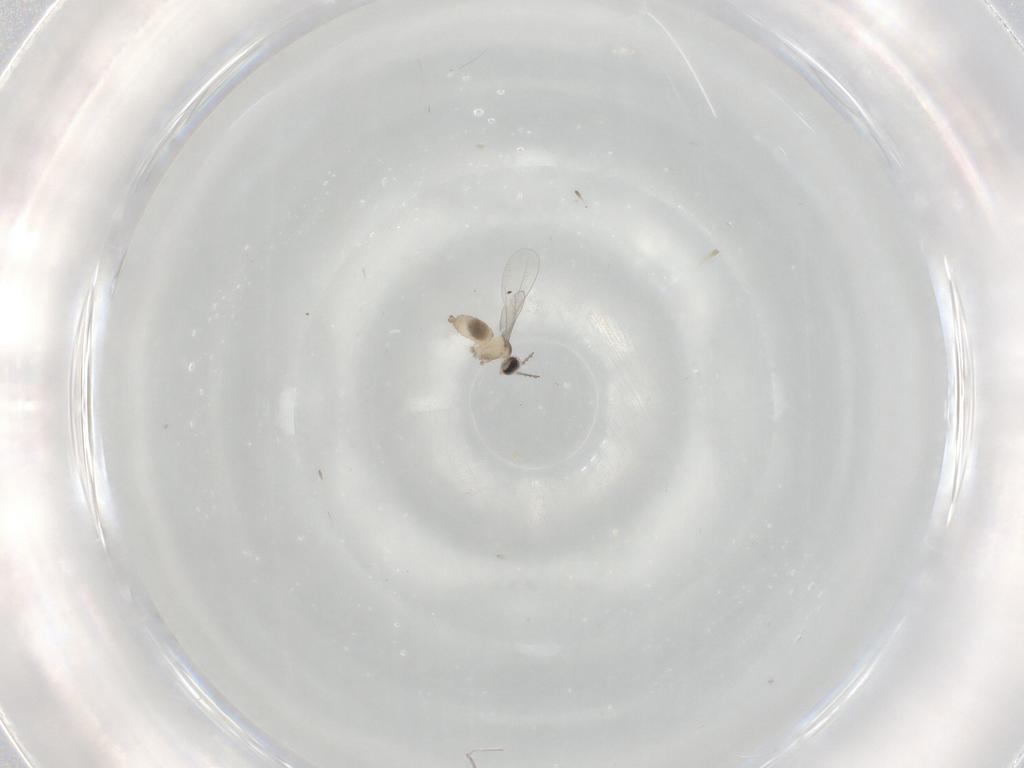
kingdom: Animalia
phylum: Arthropoda
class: Insecta
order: Diptera
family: Cecidomyiidae
